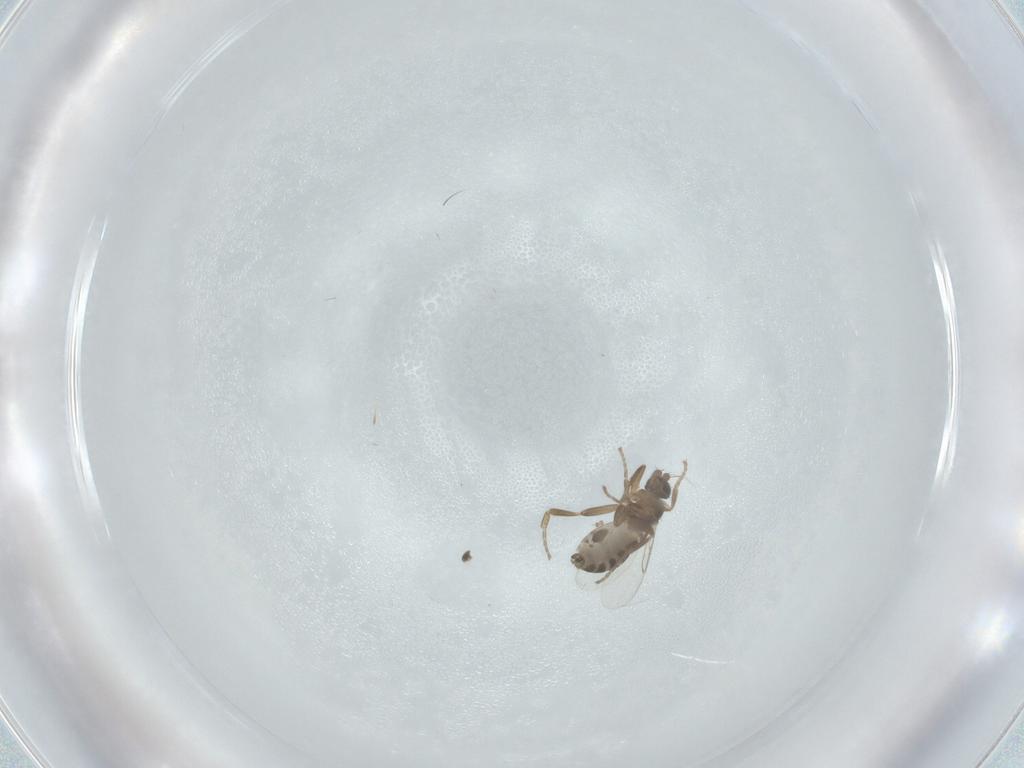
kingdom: Animalia
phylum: Arthropoda
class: Insecta
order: Diptera
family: Phoridae
